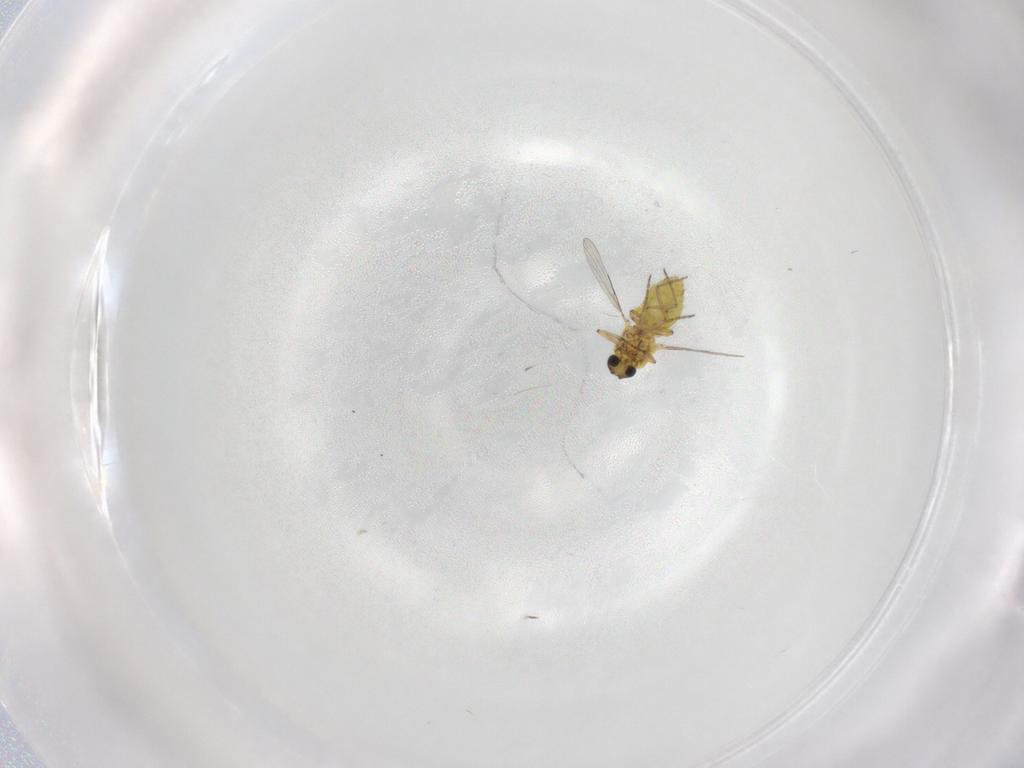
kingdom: Animalia
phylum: Arthropoda
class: Insecta
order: Diptera
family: Ceratopogonidae
